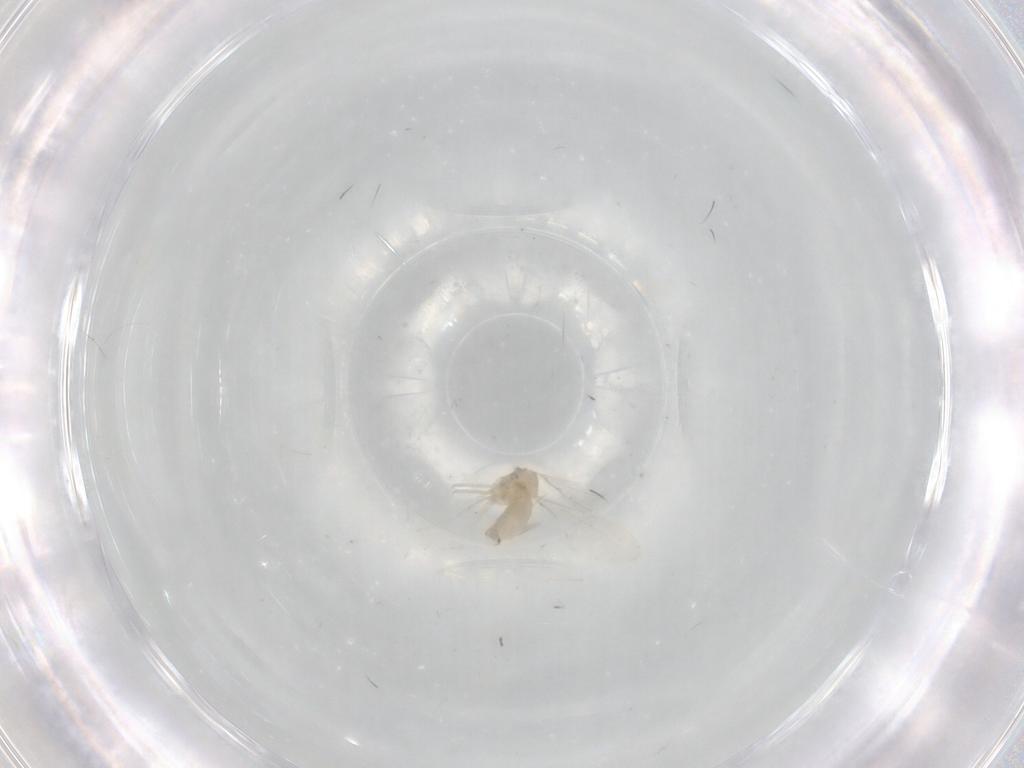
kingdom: Animalia
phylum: Arthropoda
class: Insecta
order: Diptera
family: Cecidomyiidae
